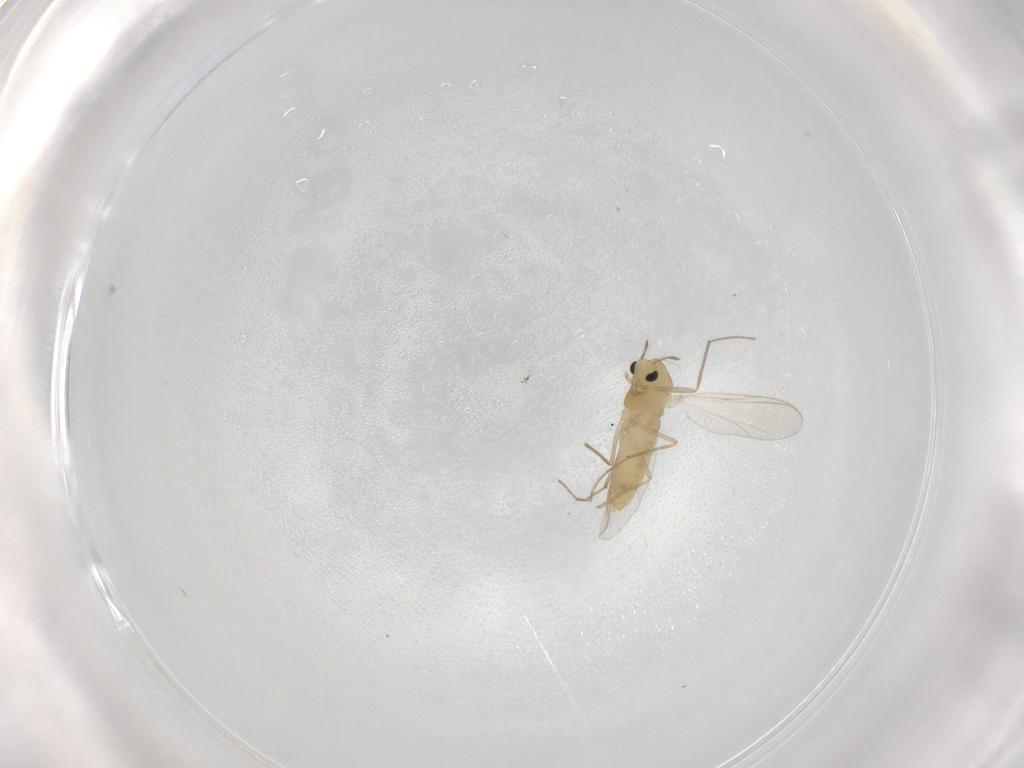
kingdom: Animalia
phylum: Arthropoda
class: Insecta
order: Diptera
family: Chironomidae
